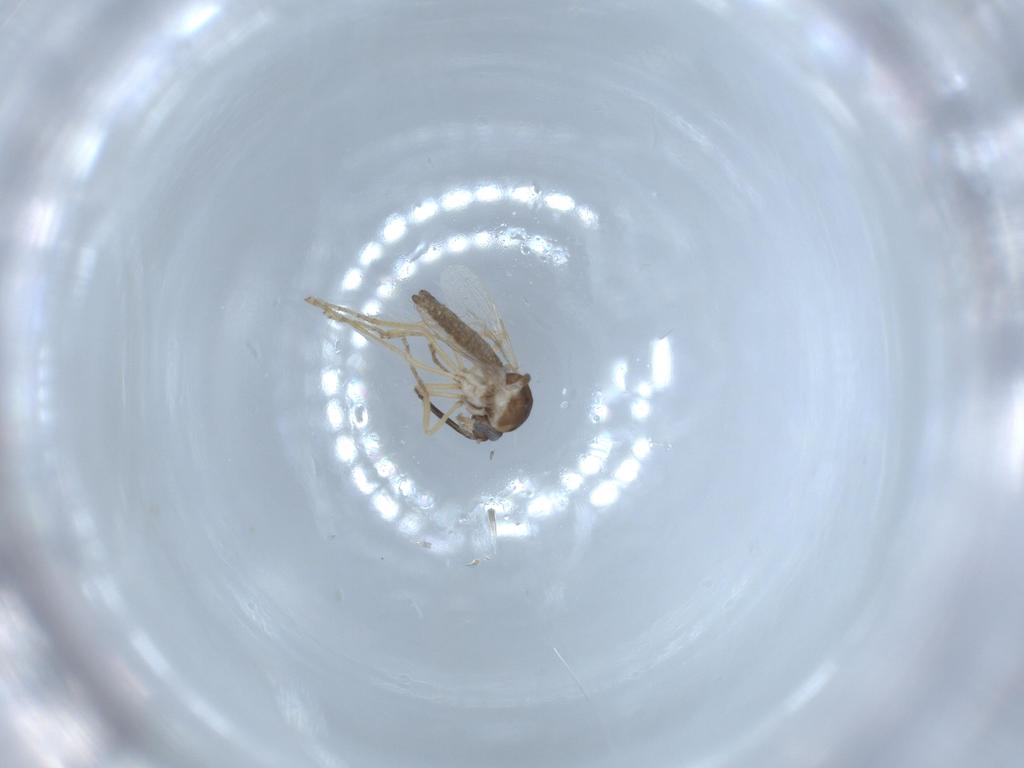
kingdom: Animalia
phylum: Arthropoda
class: Insecta
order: Diptera
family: Ceratopogonidae
